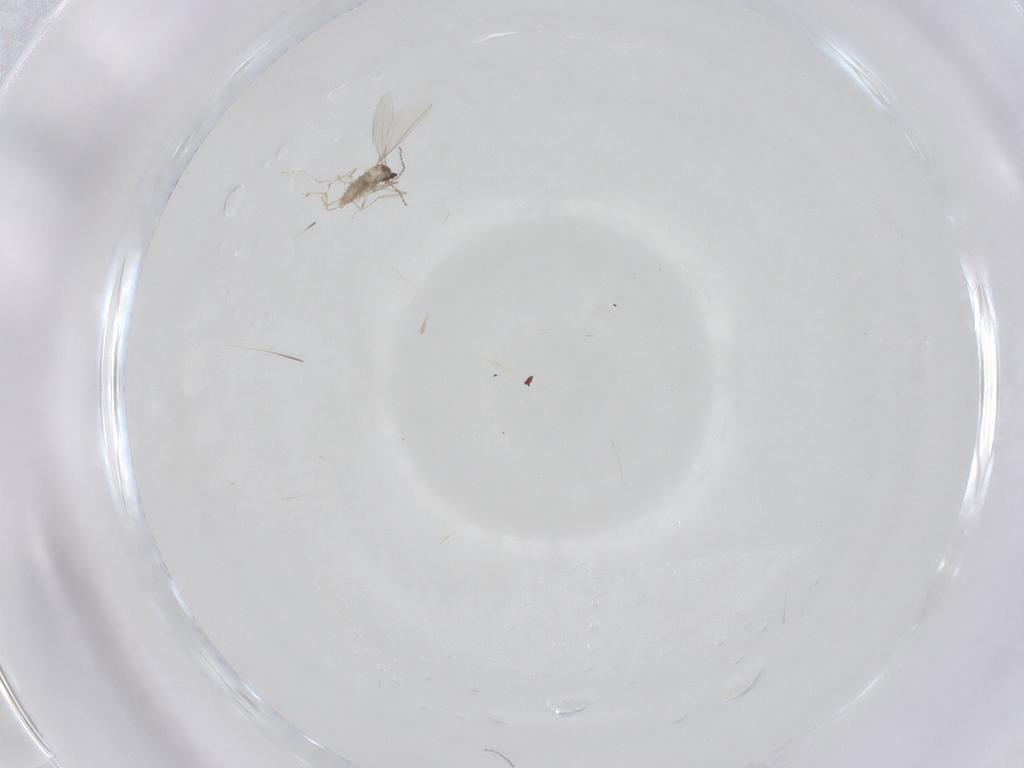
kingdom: Animalia
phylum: Arthropoda
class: Insecta
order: Diptera
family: Cecidomyiidae
